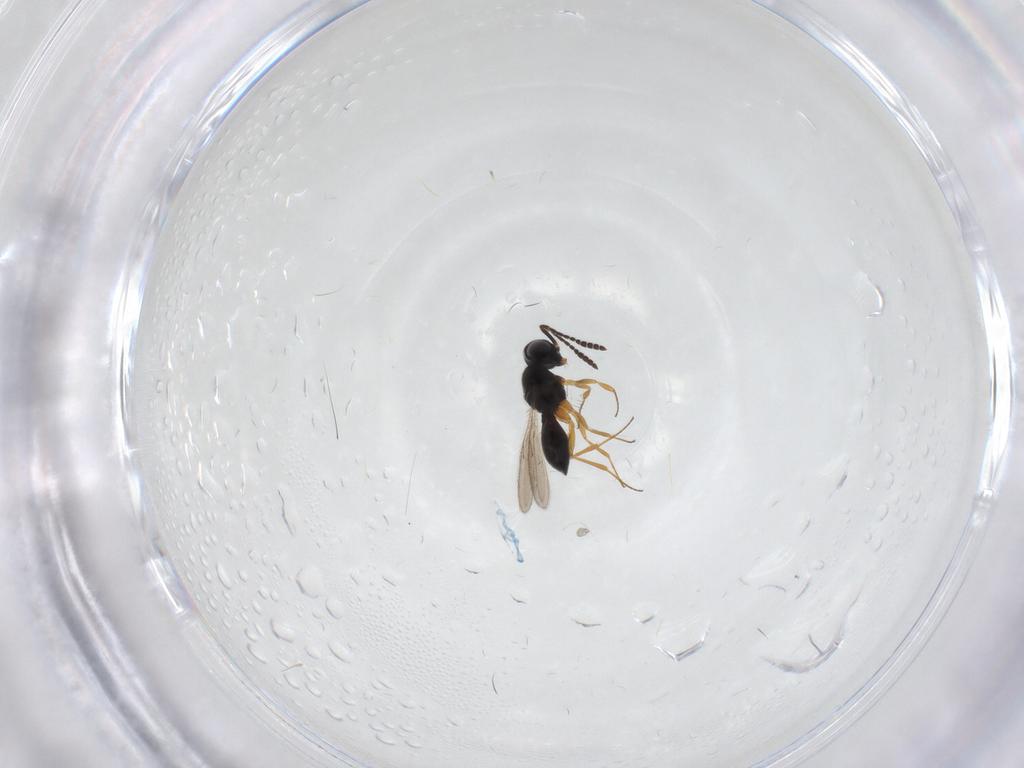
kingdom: Animalia
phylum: Arthropoda
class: Insecta
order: Hymenoptera
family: Scelionidae
